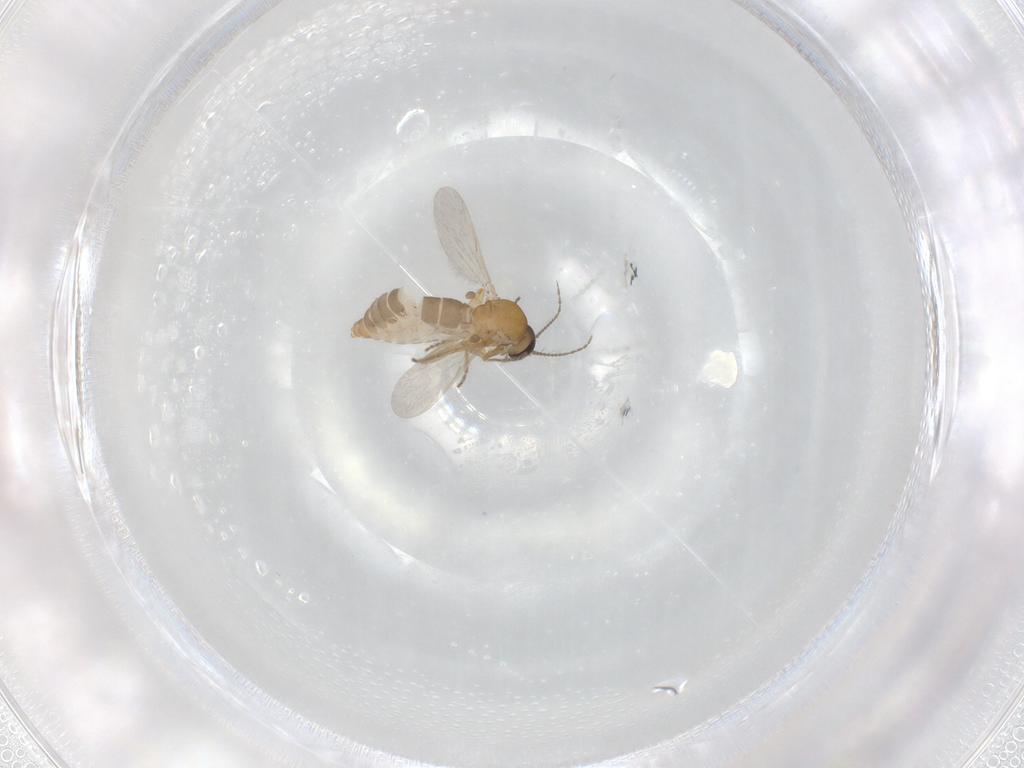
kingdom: Animalia
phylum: Arthropoda
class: Insecta
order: Diptera
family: Ceratopogonidae
